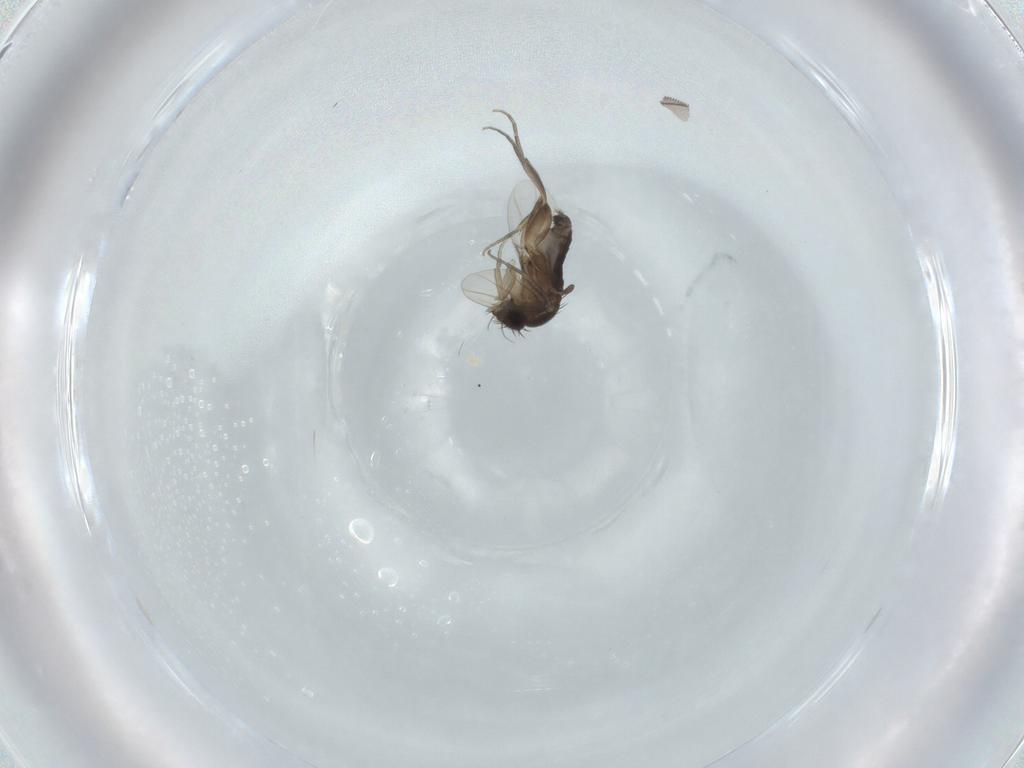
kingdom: Animalia
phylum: Arthropoda
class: Insecta
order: Diptera
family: Phoridae
